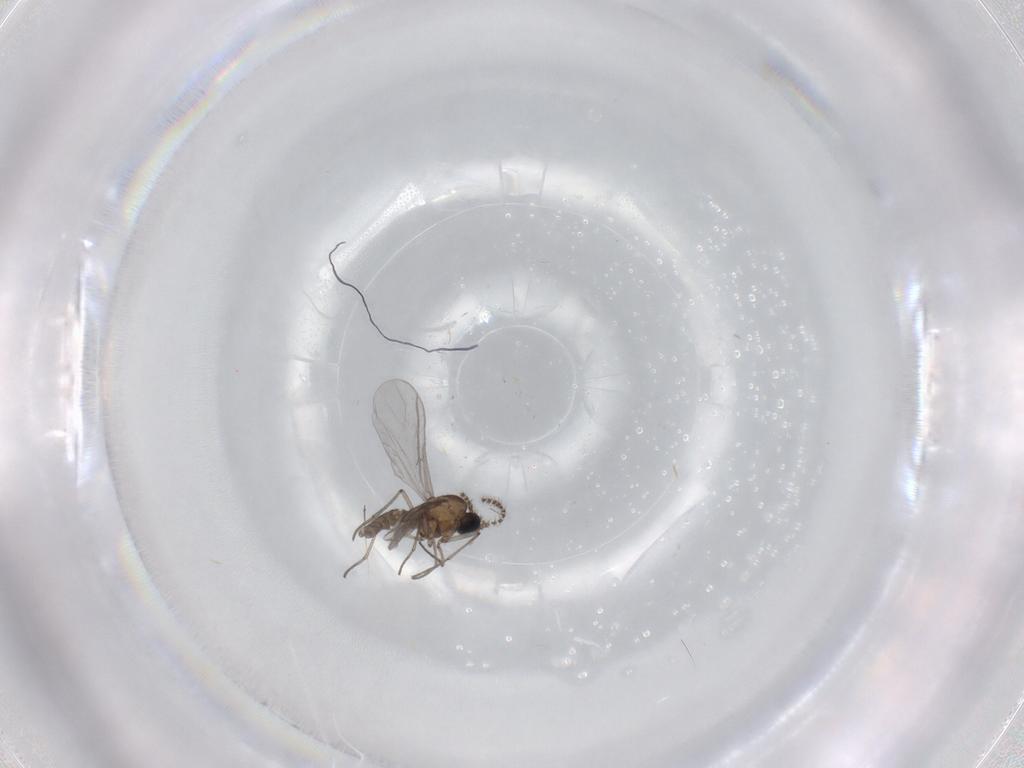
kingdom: Animalia
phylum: Arthropoda
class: Insecta
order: Diptera
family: Sciaridae
